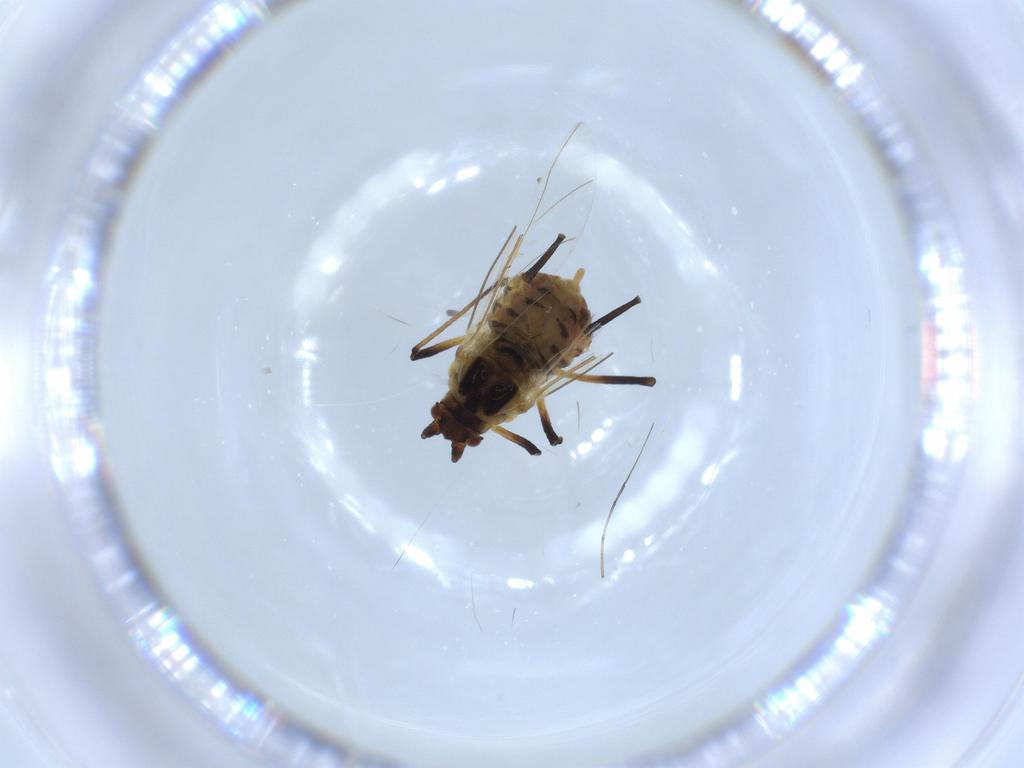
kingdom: Animalia
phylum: Arthropoda
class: Insecta
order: Hemiptera
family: Aphididae
